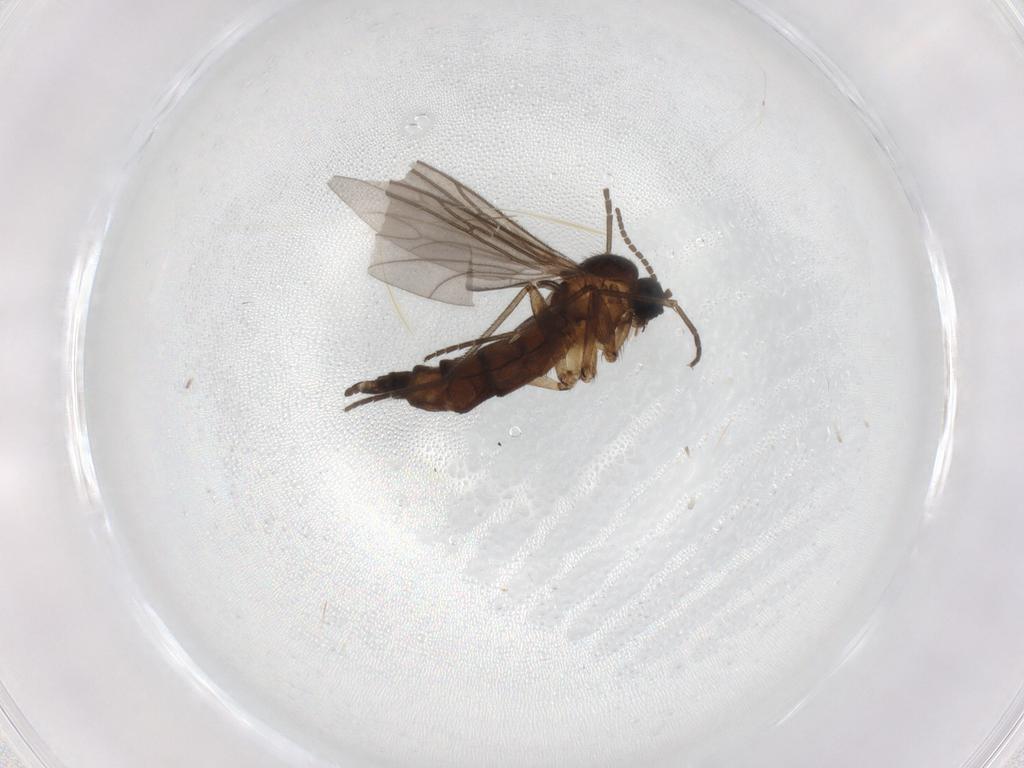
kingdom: Animalia
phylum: Arthropoda
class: Insecta
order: Diptera
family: Sciaridae
